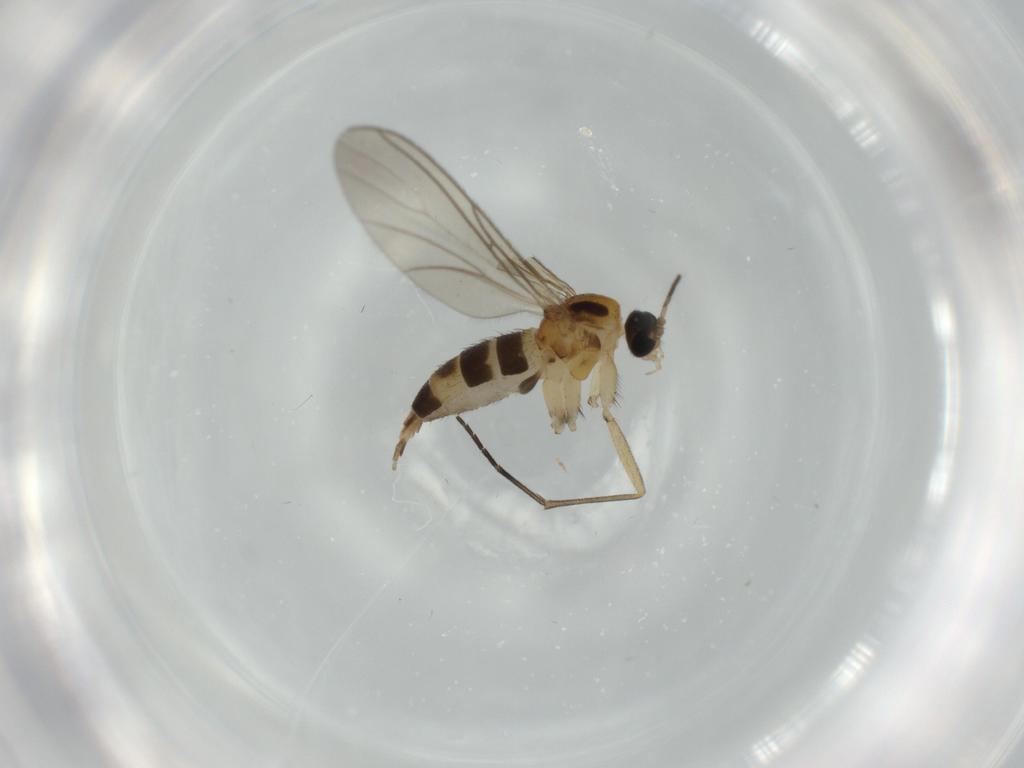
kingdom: Animalia
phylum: Arthropoda
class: Insecta
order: Diptera
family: Sciaridae
